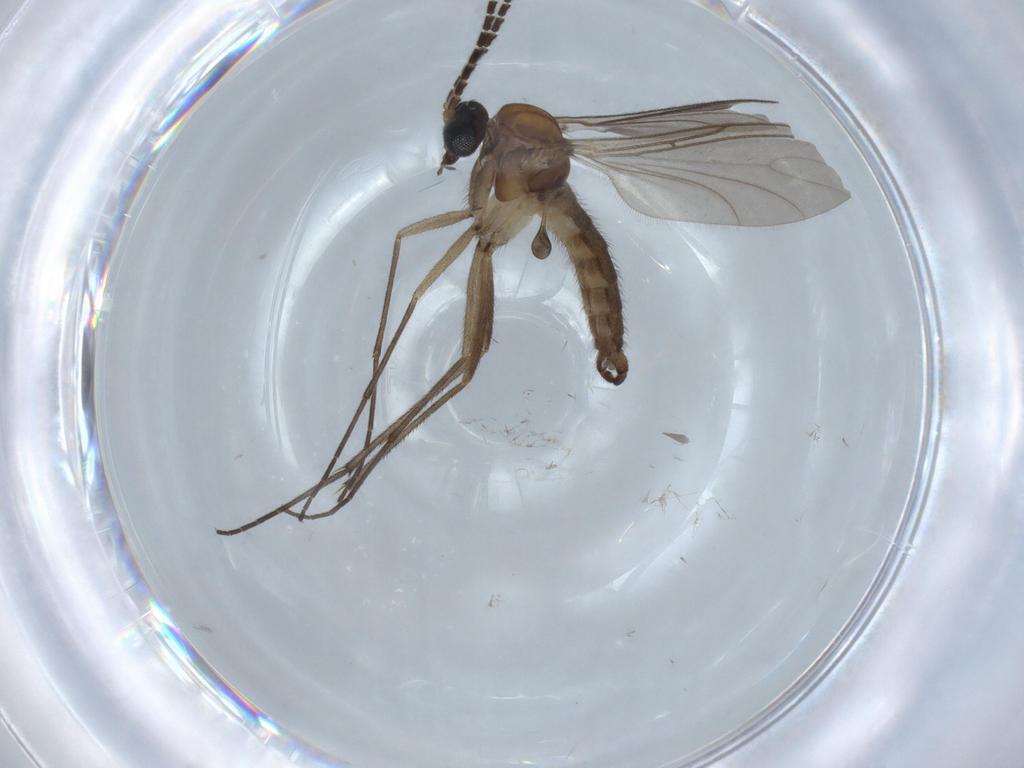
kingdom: Animalia
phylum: Arthropoda
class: Insecta
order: Diptera
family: Sciaridae
